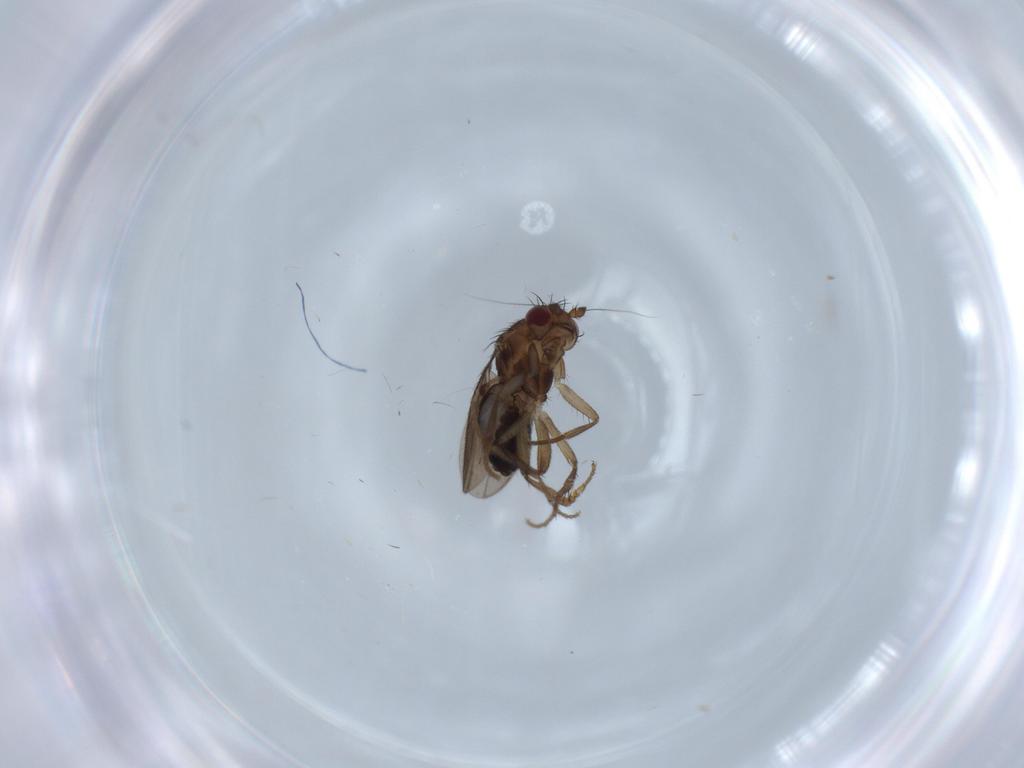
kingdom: Animalia
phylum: Arthropoda
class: Insecta
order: Diptera
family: Sphaeroceridae
